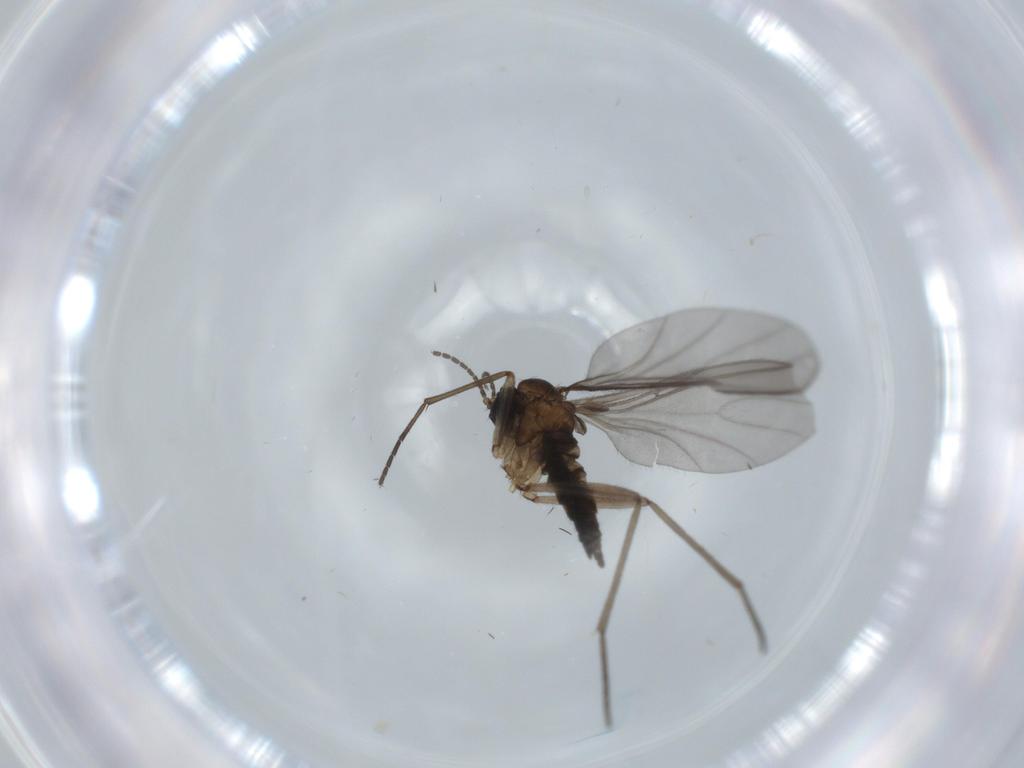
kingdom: Animalia
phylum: Arthropoda
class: Insecta
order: Diptera
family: Sciaridae
